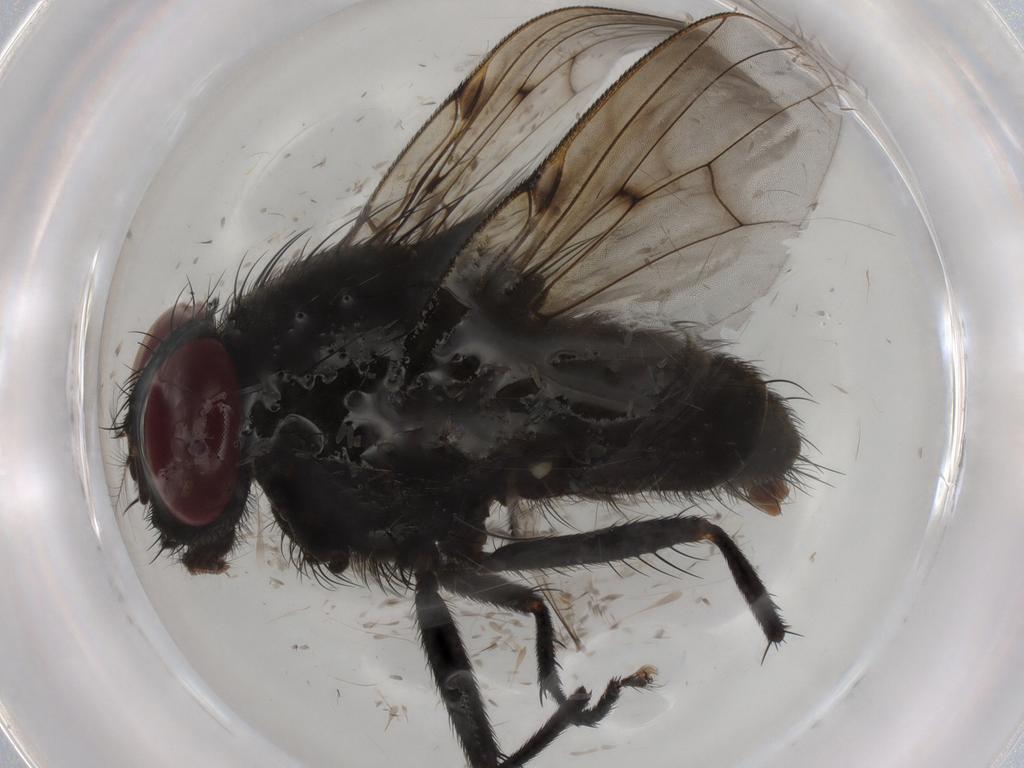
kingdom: Animalia
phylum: Arthropoda
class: Insecta
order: Diptera
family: Muscidae
